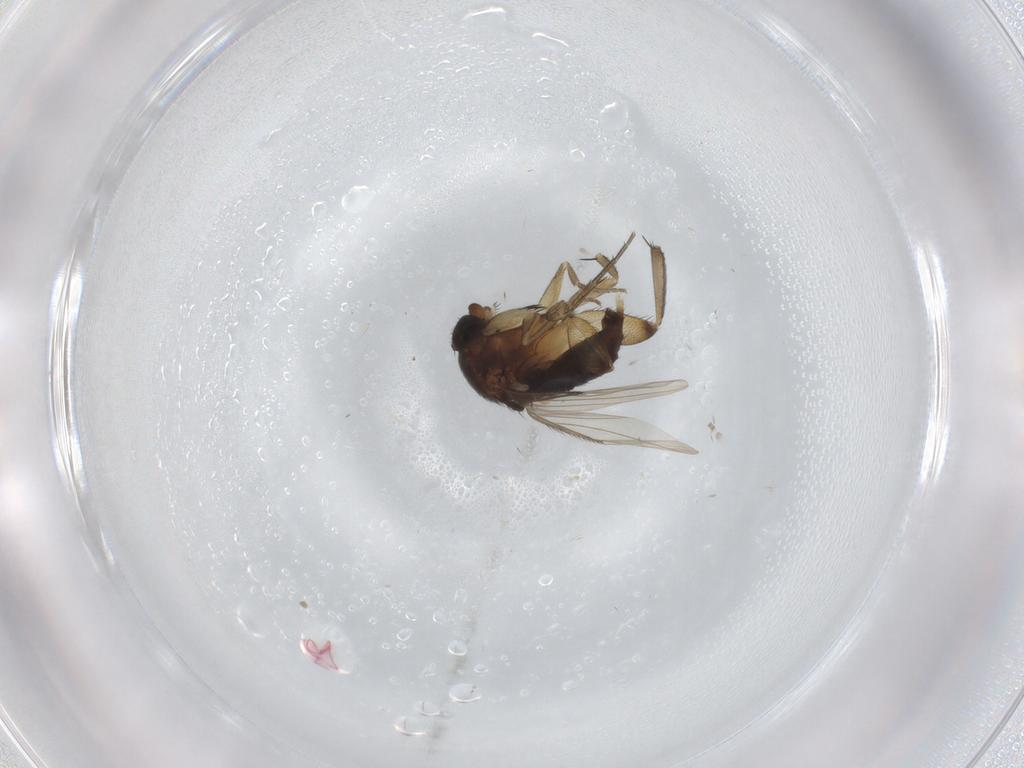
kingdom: Animalia
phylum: Arthropoda
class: Insecta
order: Diptera
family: Phoridae
